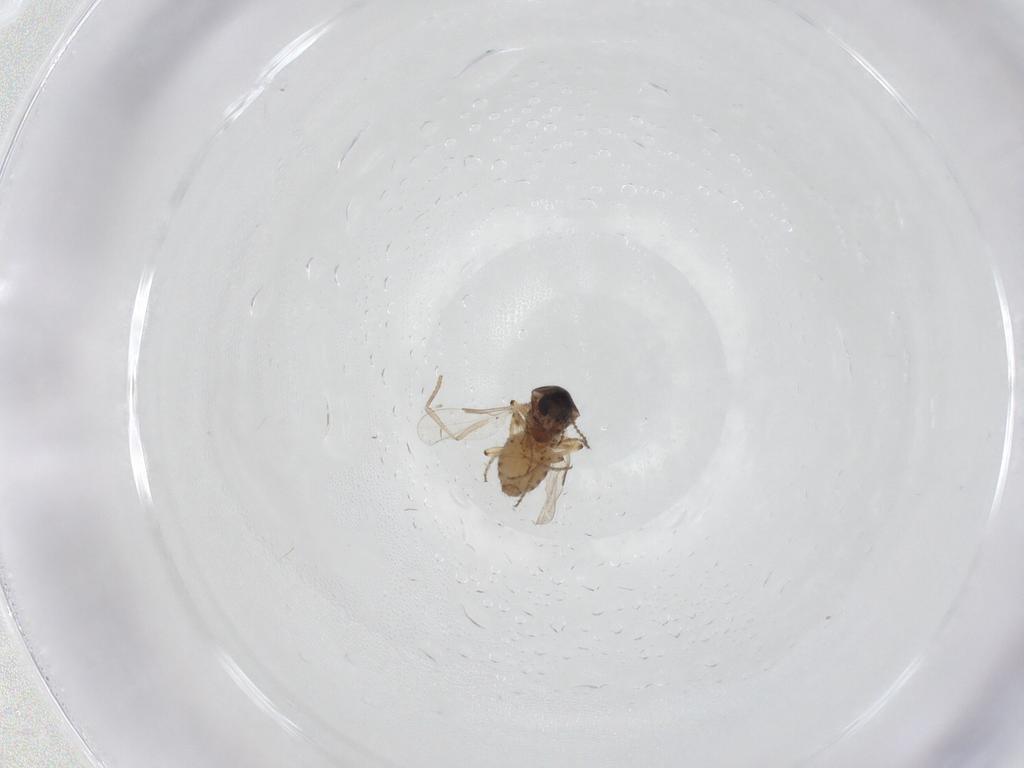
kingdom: Animalia
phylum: Arthropoda
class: Insecta
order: Diptera
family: Ceratopogonidae
